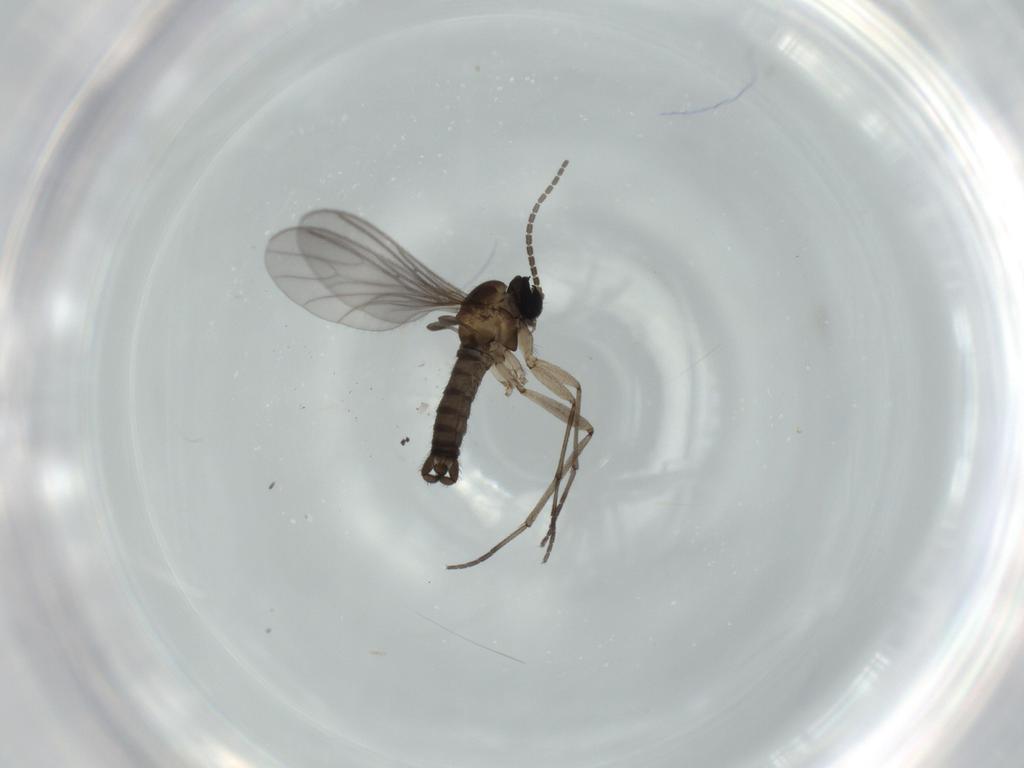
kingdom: Animalia
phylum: Arthropoda
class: Insecta
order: Diptera
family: Sciaridae
